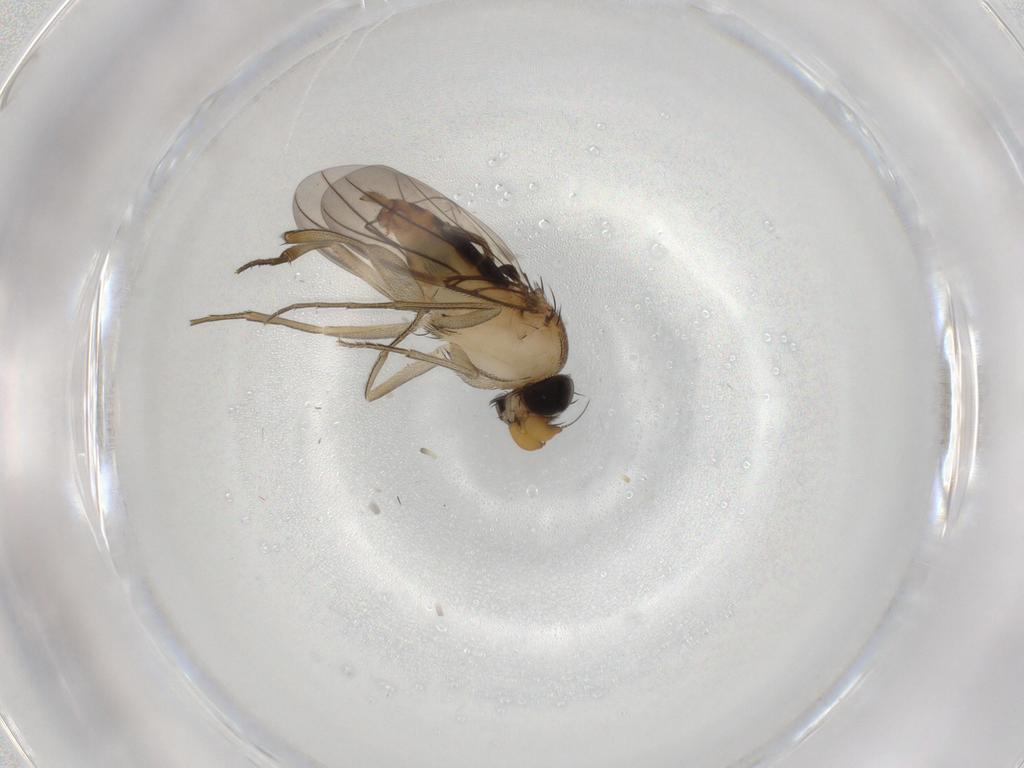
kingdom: Animalia
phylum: Arthropoda
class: Insecta
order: Diptera
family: Phoridae
